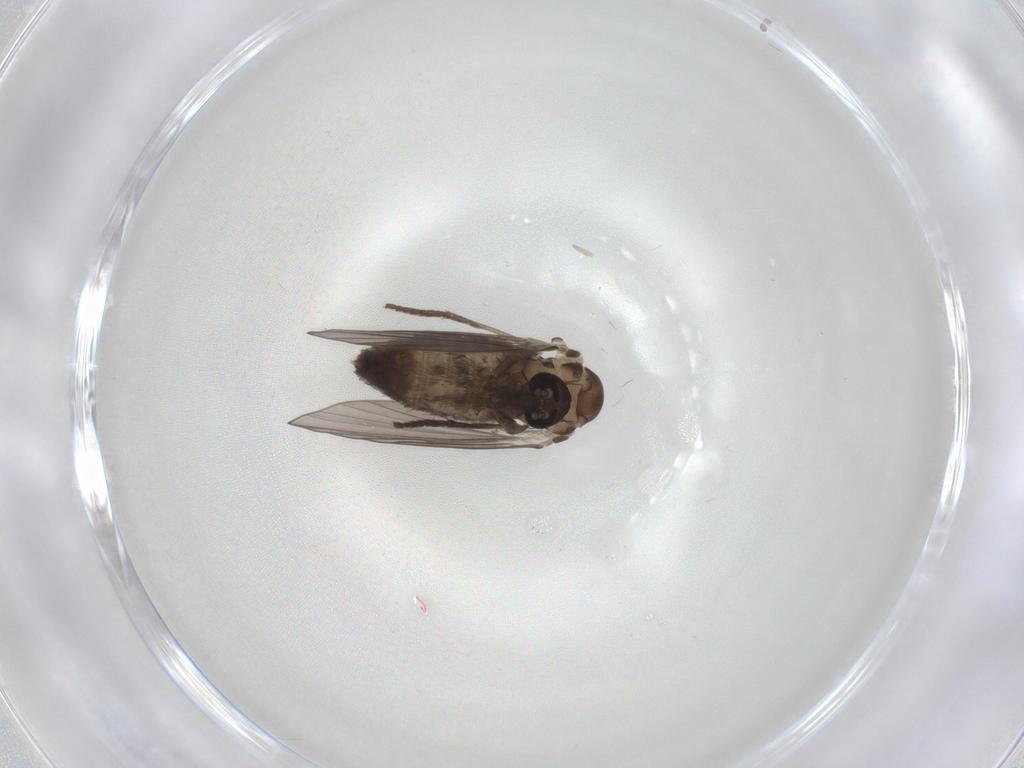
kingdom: Animalia
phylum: Arthropoda
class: Insecta
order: Diptera
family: Psychodidae
